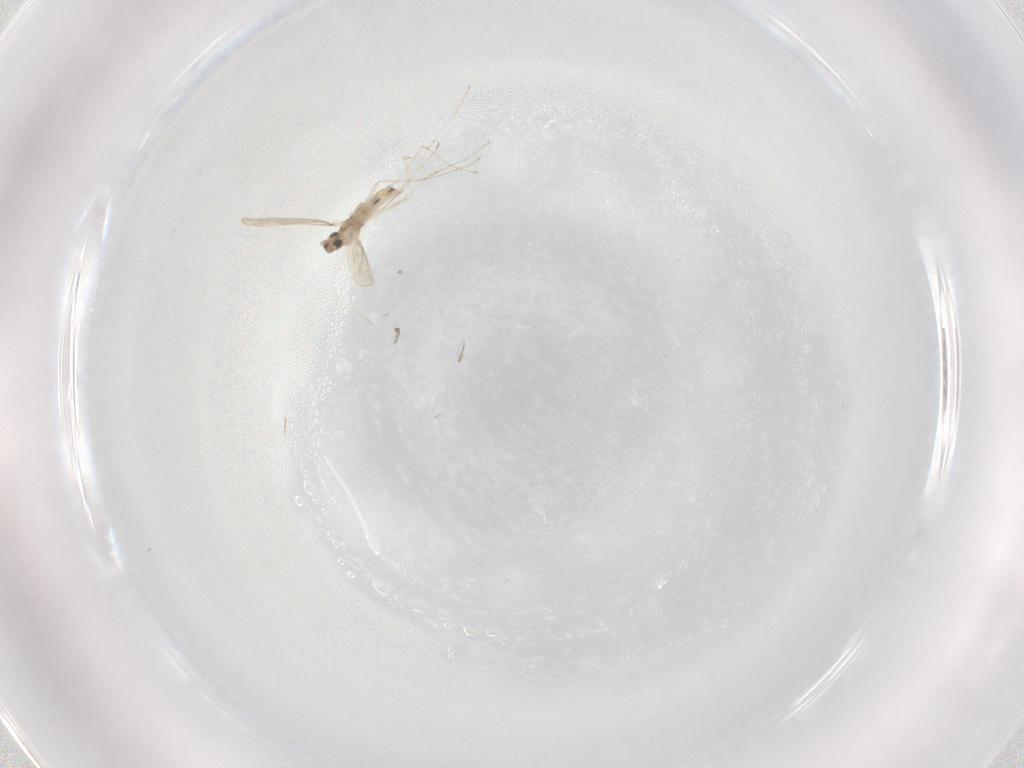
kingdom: Animalia
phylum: Arthropoda
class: Insecta
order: Diptera
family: Cecidomyiidae
